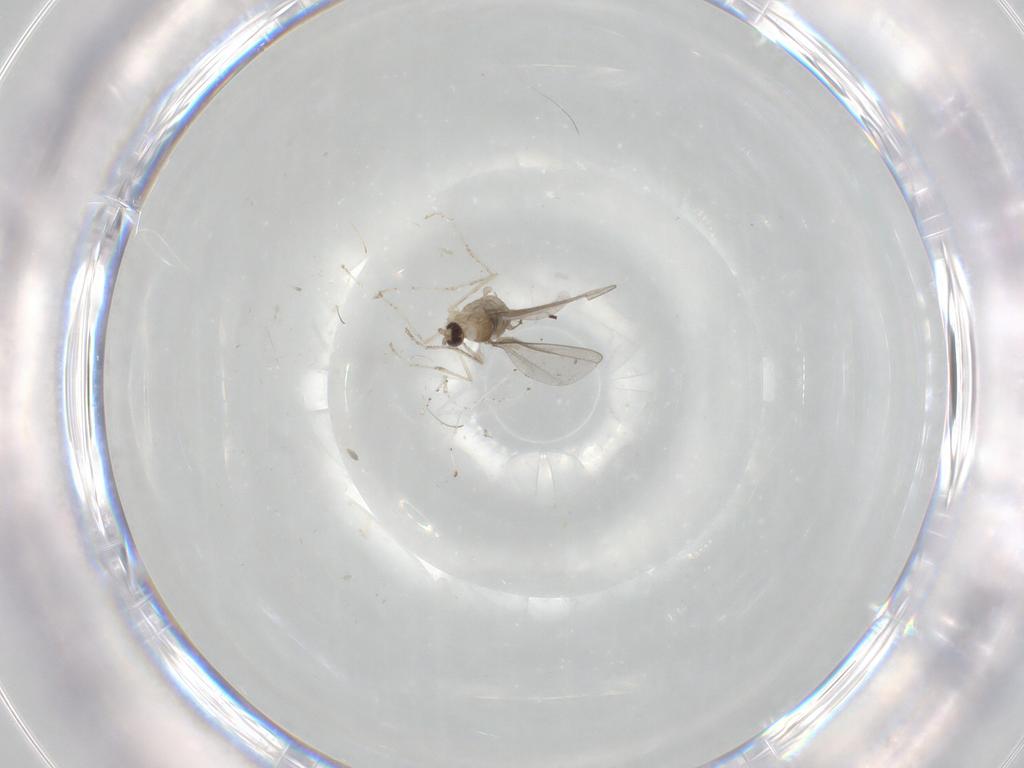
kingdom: Animalia
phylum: Arthropoda
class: Insecta
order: Diptera
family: Cecidomyiidae
